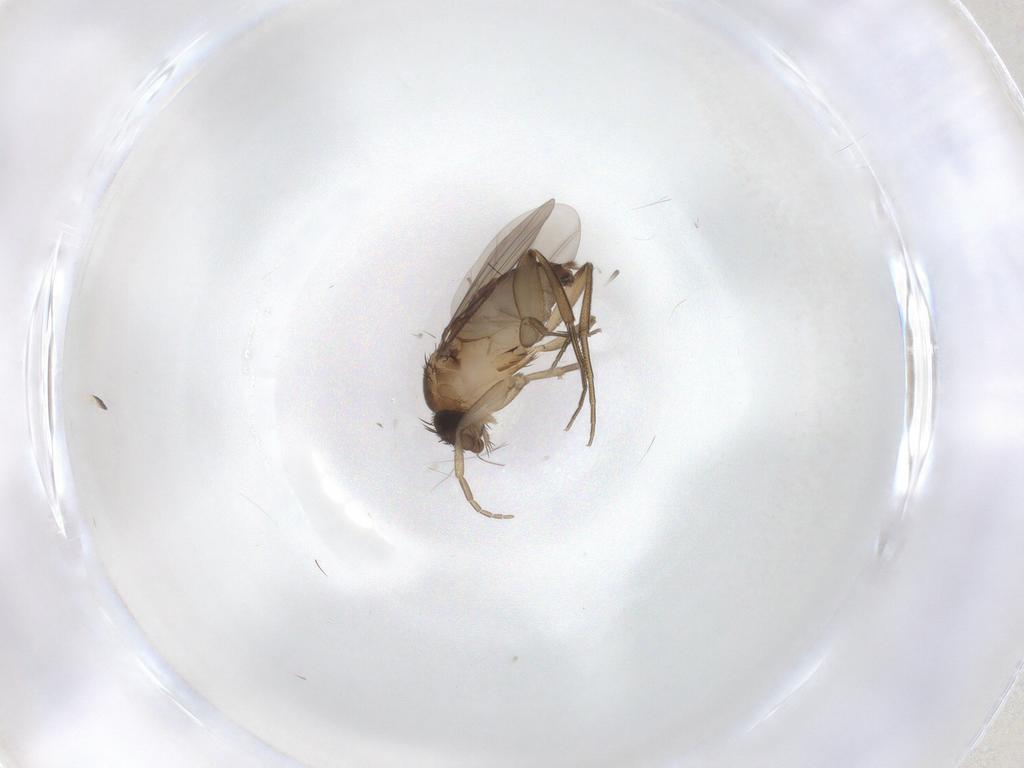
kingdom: Animalia
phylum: Arthropoda
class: Insecta
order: Diptera
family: Phoridae
